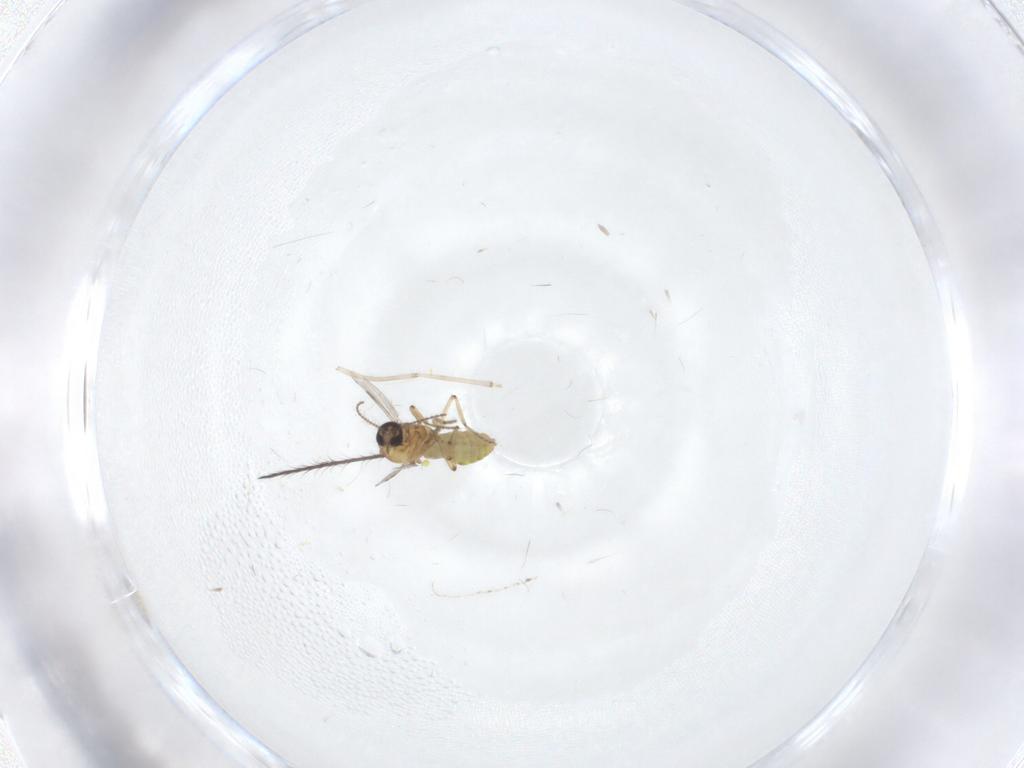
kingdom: Animalia
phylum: Arthropoda
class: Insecta
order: Diptera
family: Cecidomyiidae
